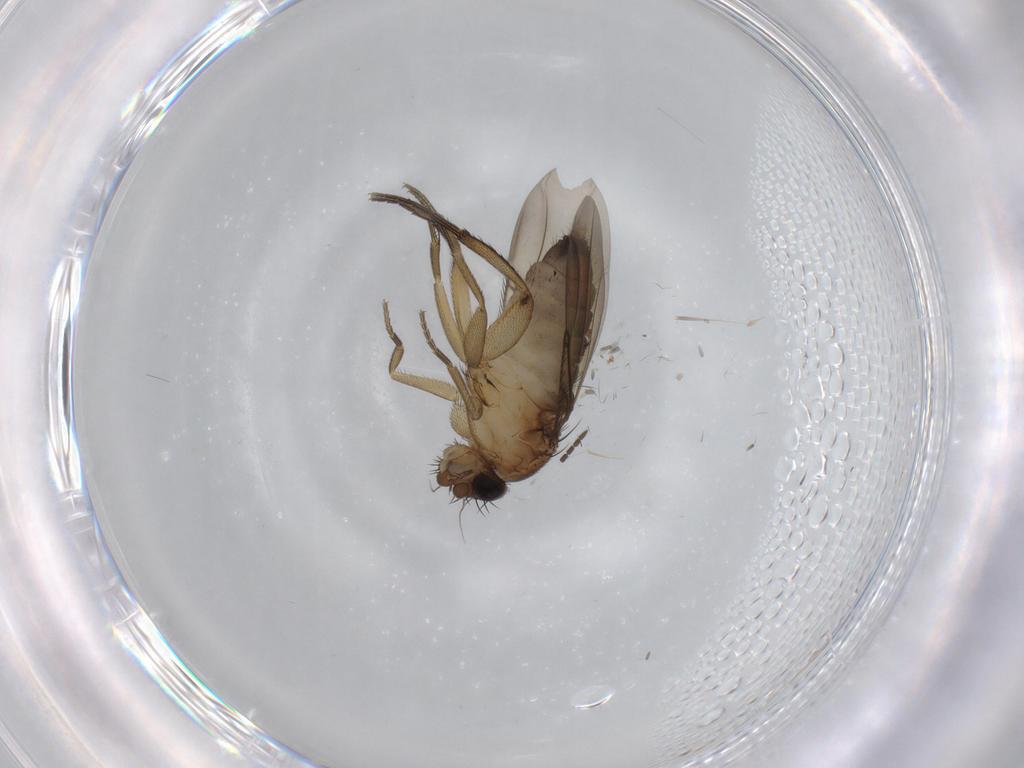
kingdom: Animalia
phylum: Arthropoda
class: Insecta
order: Diptera
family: Phoridae
